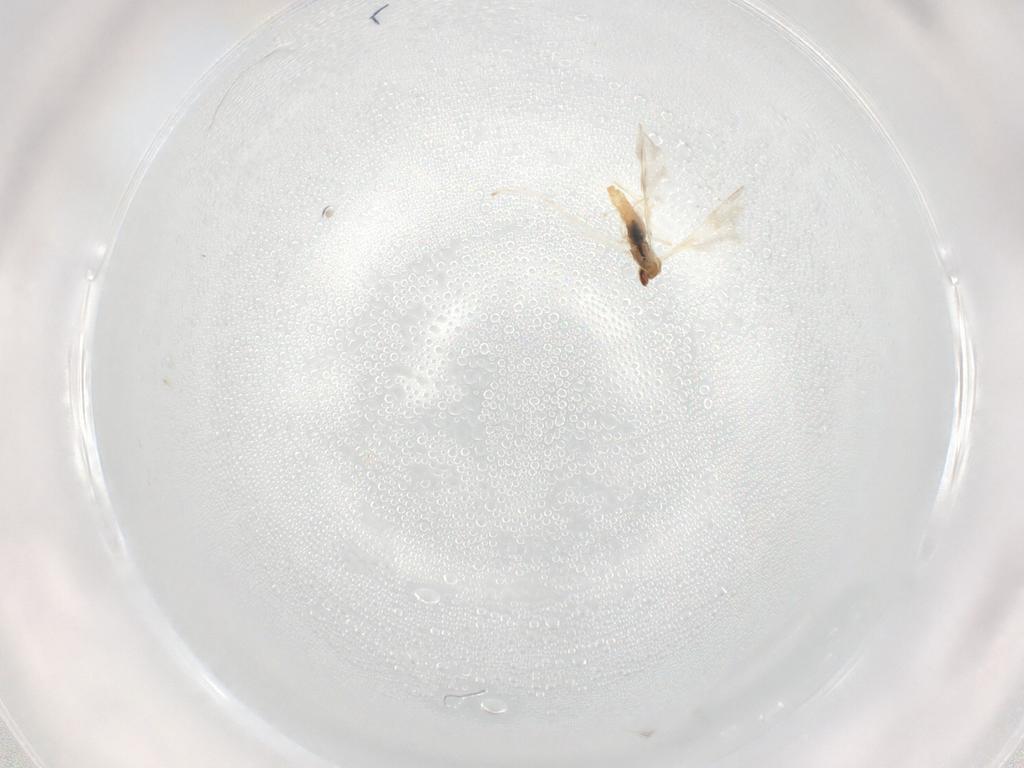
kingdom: Animalia
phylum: Arthropoda
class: Insecta
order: Diptera
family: Cecidomyiidae
